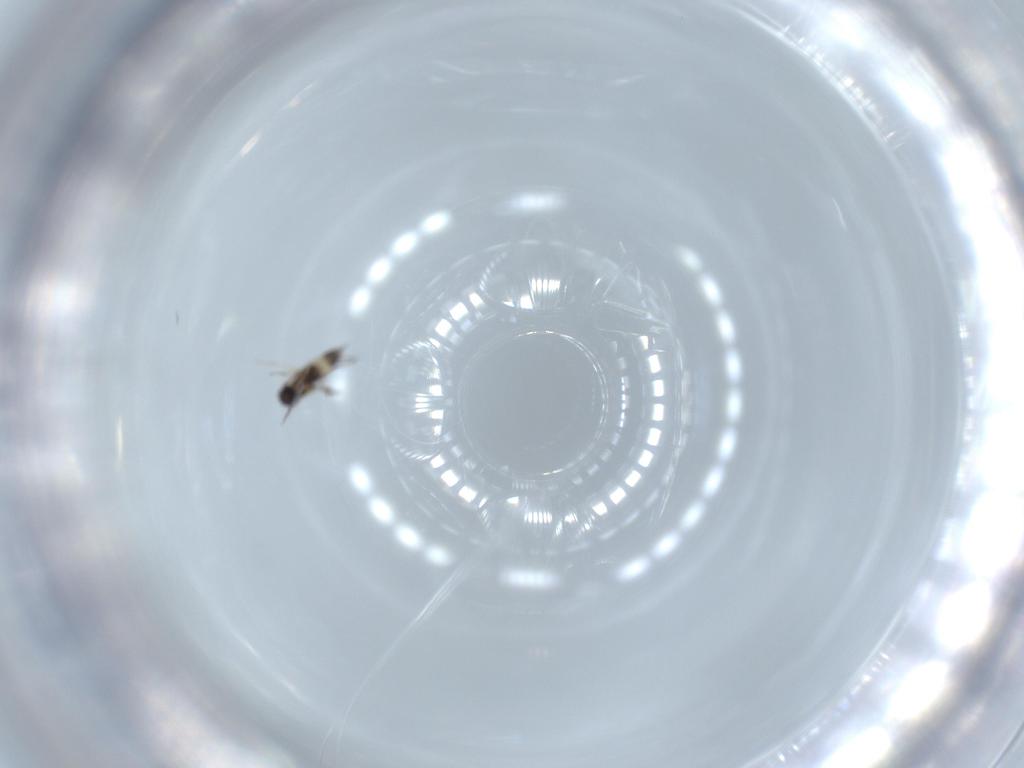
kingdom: Animalia
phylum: Arthropoda
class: Insecta
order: Hymenoptera
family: Mymaridae
